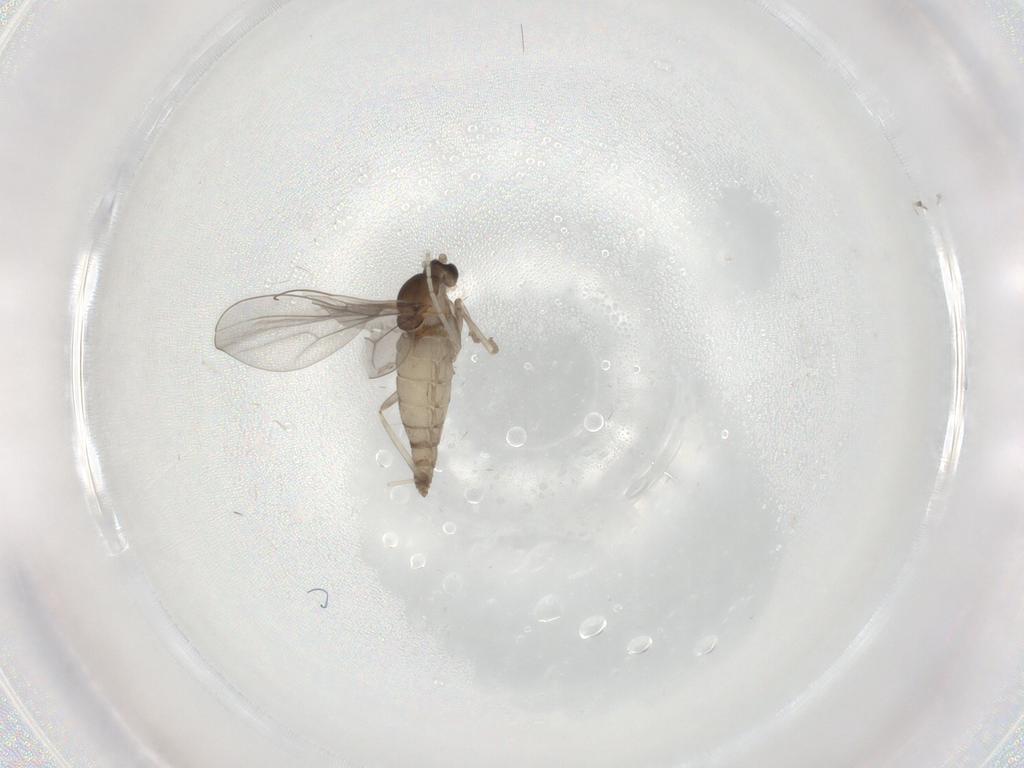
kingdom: Animalia
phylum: Arthropoda
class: Insecta
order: Diptera
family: Cecidomyiidae
